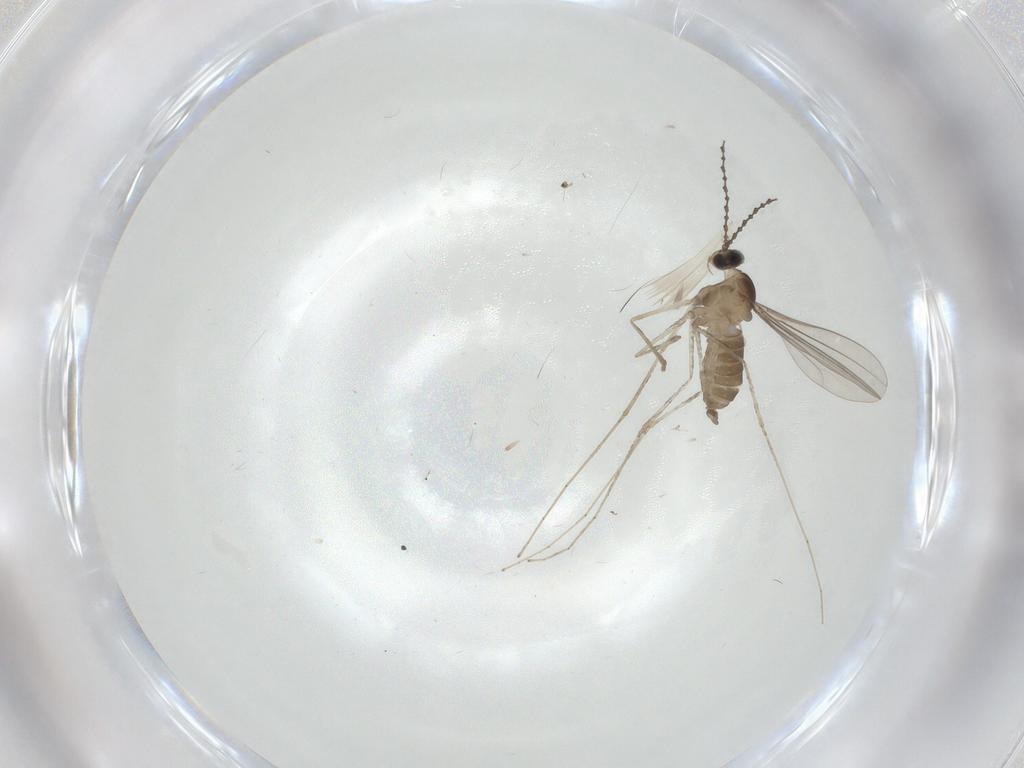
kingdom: Animalia
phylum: Arthropoda
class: Insecta
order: Diptera
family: Cecidomyiidae
